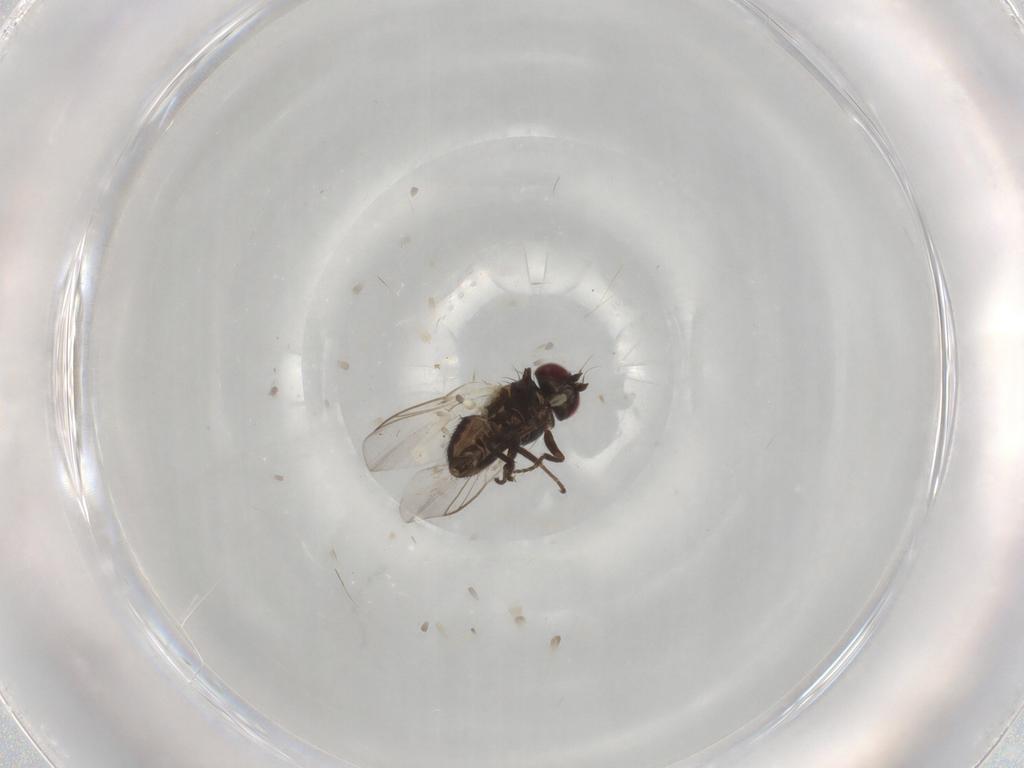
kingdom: Animalia
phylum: Arthropoda
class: Insecta
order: Diptera
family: Agromyzidae
